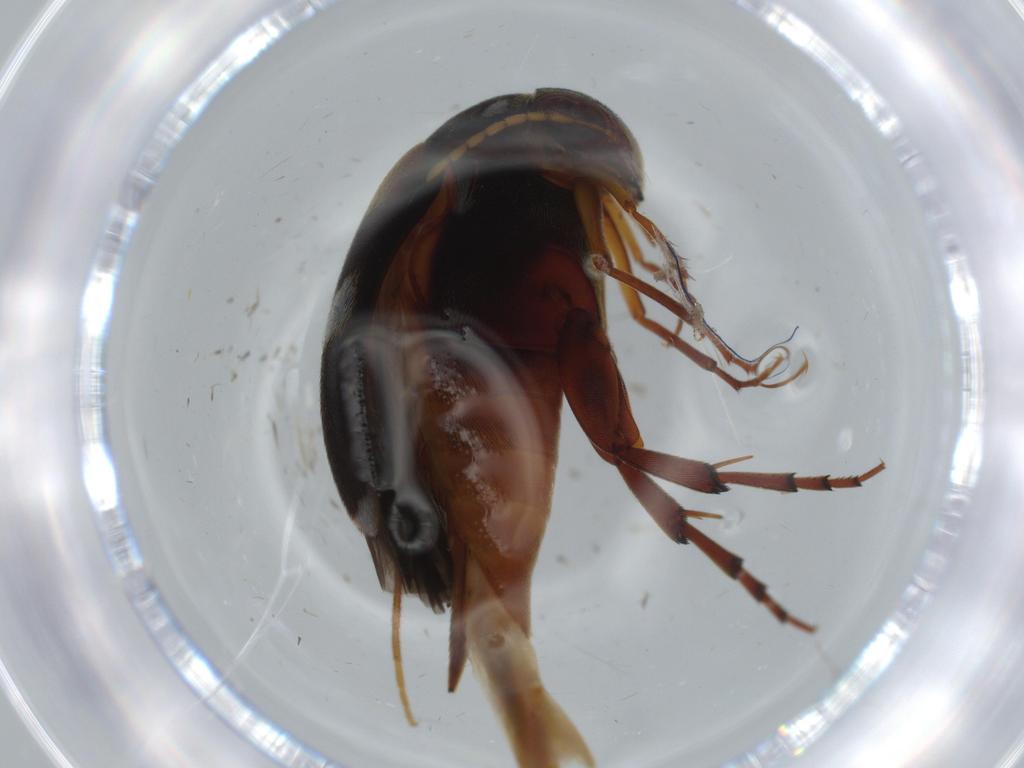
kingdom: Animalia
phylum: Arthropoda
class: Insecta
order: Coleoptera
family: Mordellidae
